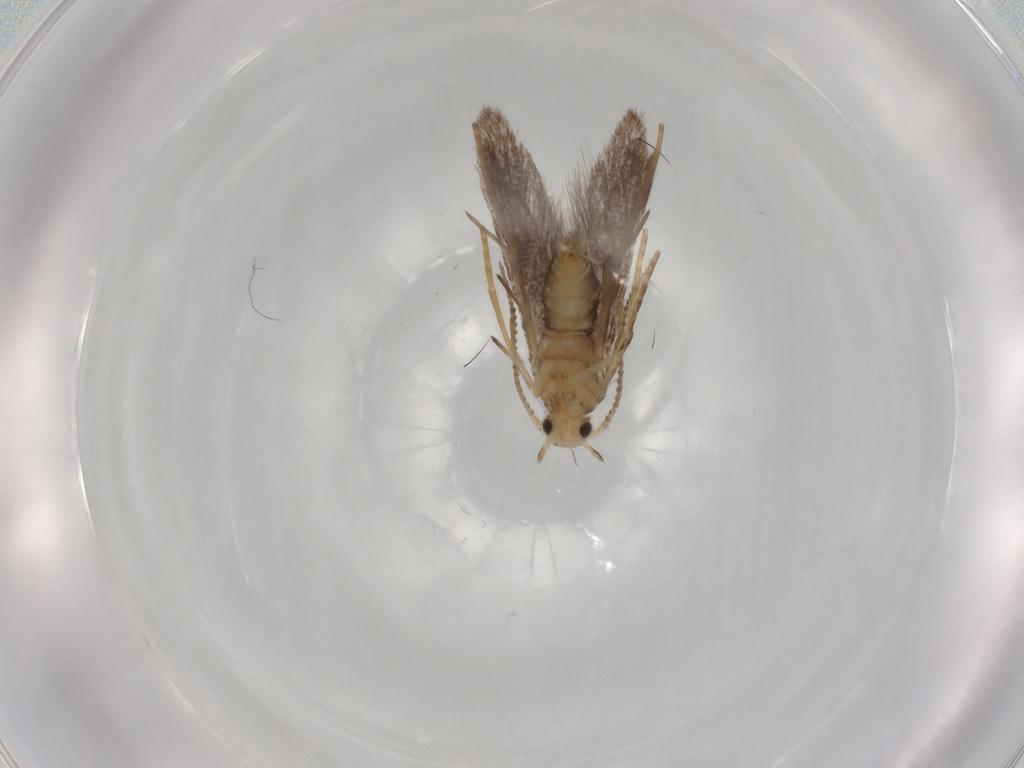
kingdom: Animalia
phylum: Arthropoda
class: Insecta
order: Lepidoptera
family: Schreckensteiniidae
